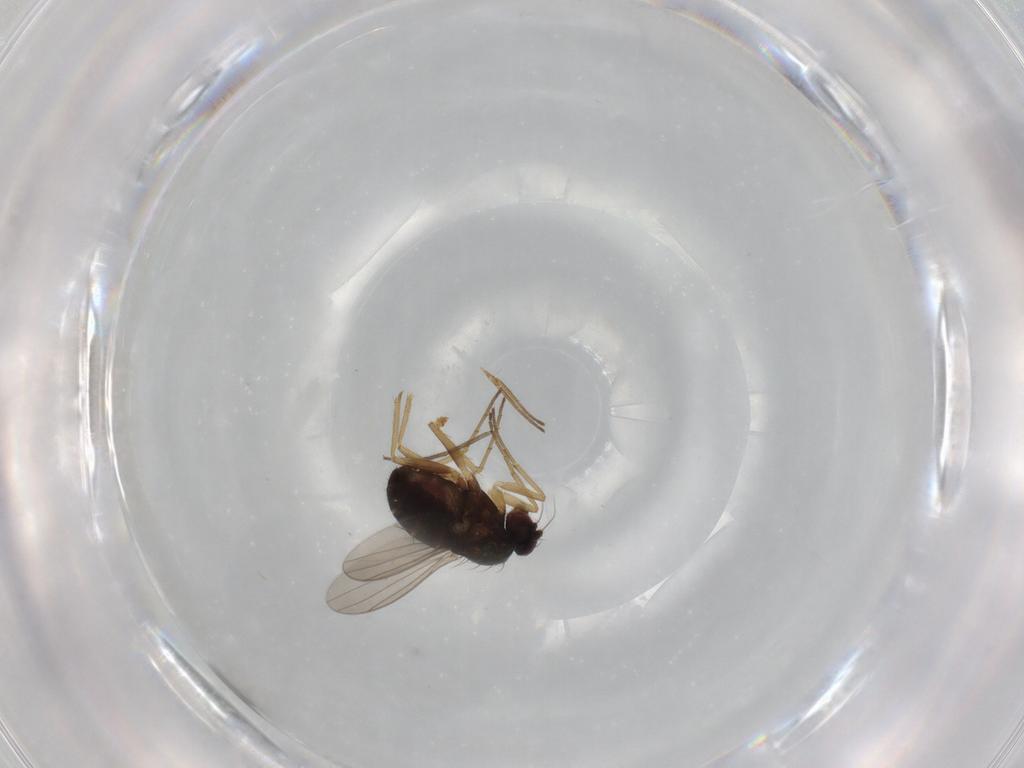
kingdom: Animalia
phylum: Arthropoda
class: Insecta
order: Diptera
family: Dolichopodidae
